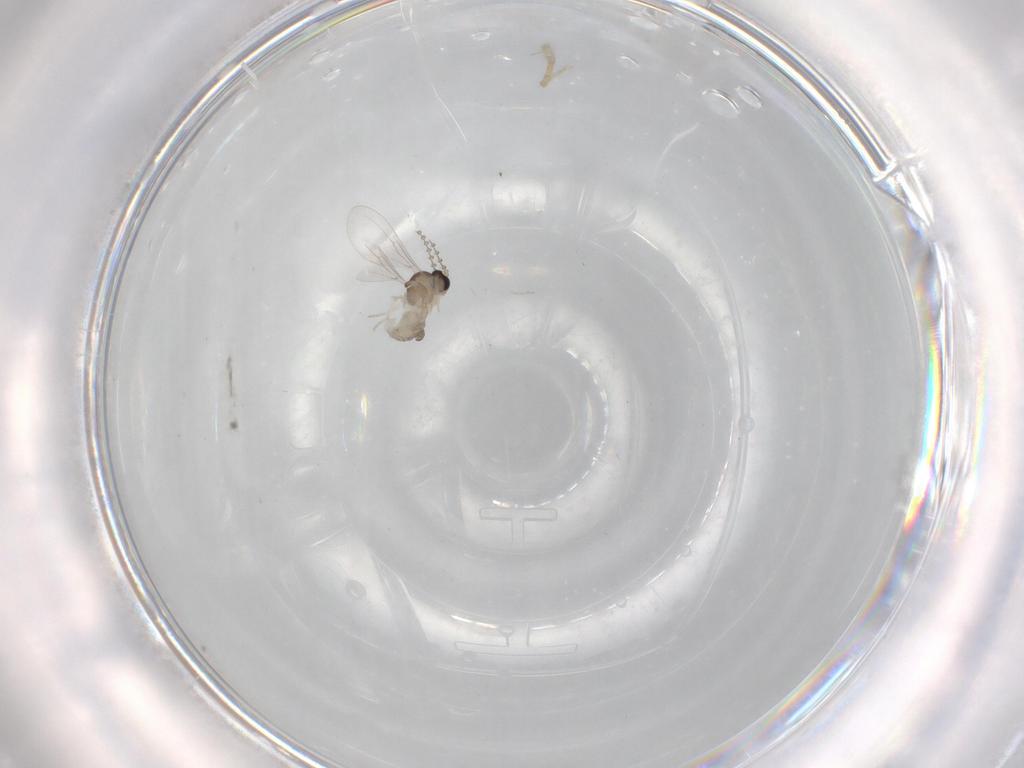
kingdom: Animalia
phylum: Arthropoda
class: Insecta
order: Diptera
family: Cecidomyiidae
